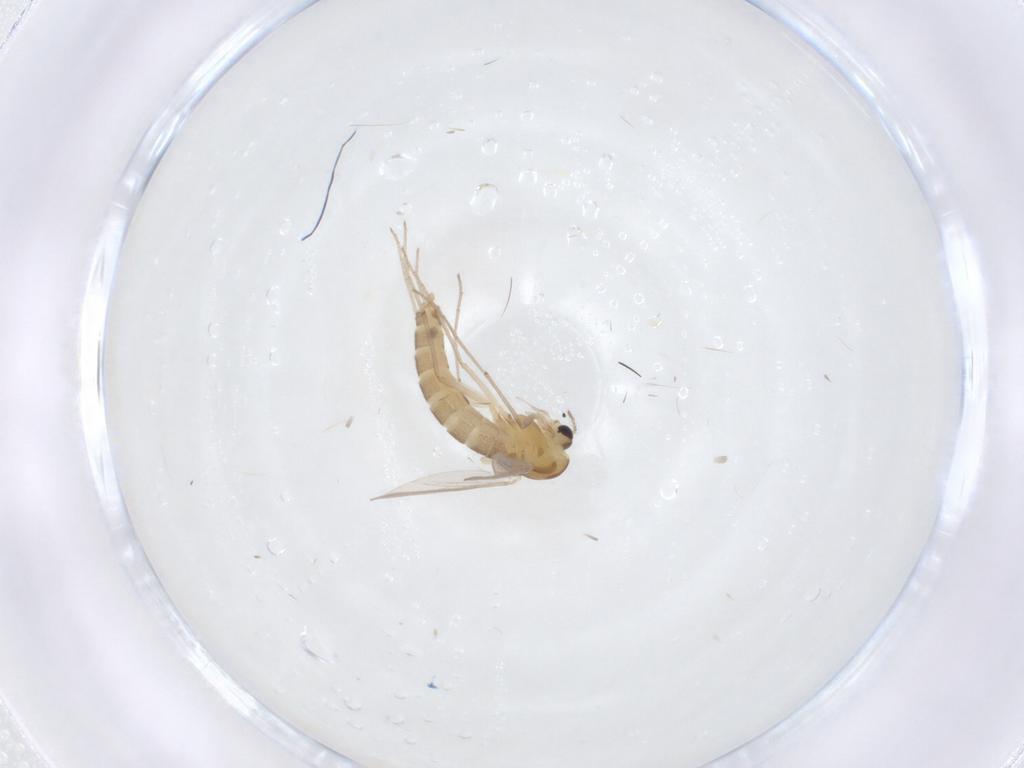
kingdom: Animalia
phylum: Arthropoda
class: Insecta
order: Diptera
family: Chironomidae
